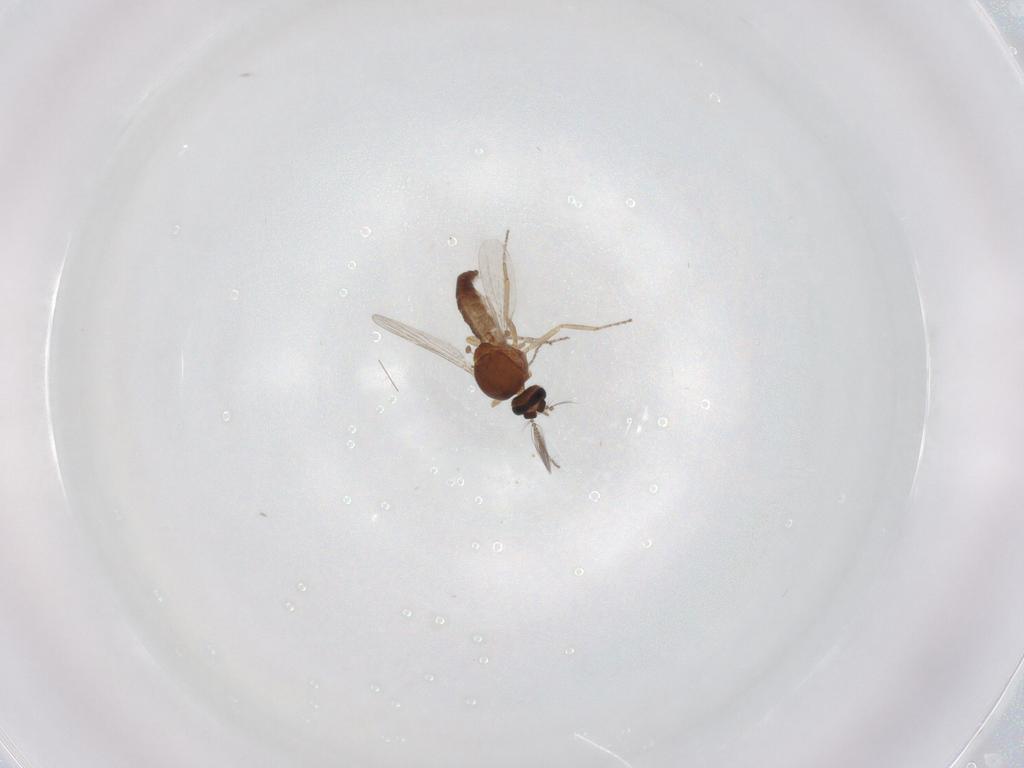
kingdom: Animalia
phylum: Arthropoda
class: Insecta
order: Diptera
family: Ceratopogonidae
